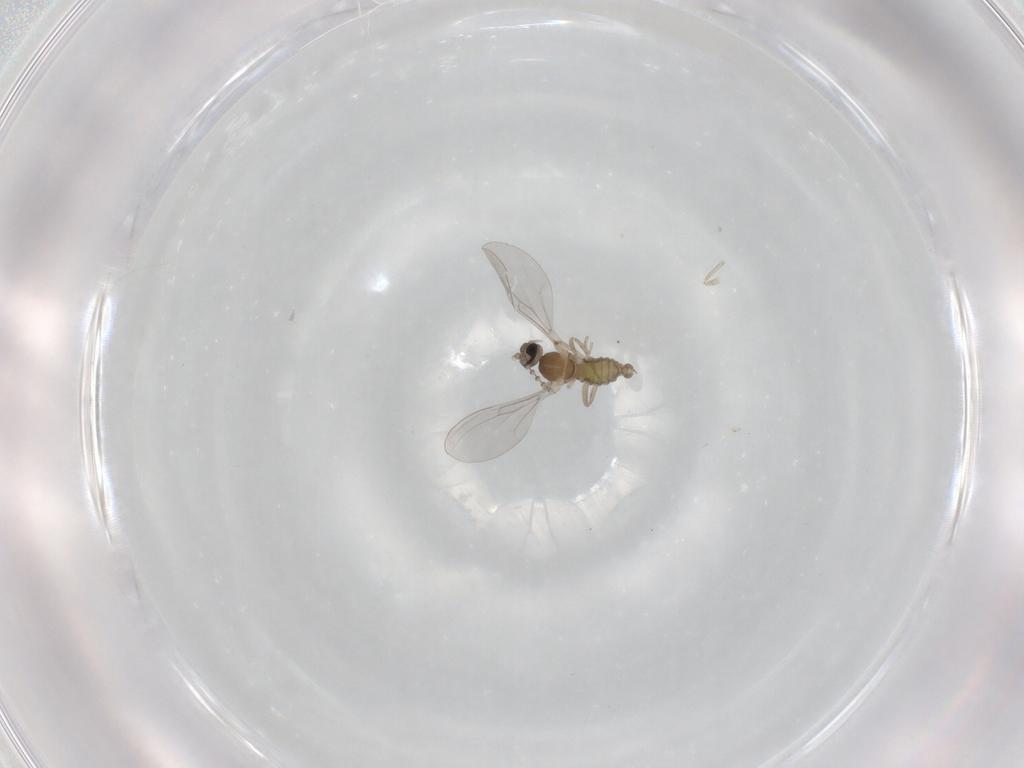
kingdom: Animalia
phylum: Arthropoda
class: Insecta
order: Diptera
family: Cecidomyiidae
